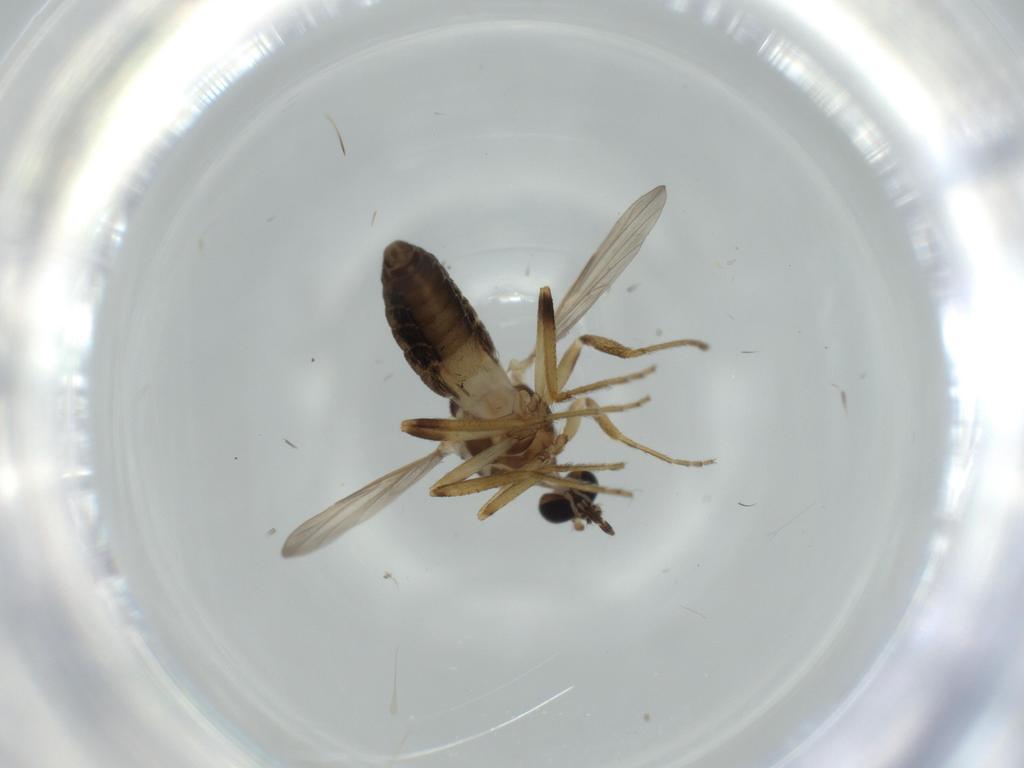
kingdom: Animalia
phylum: Arthropoda
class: Insecta
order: Diptera
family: Ceratopogonidae
